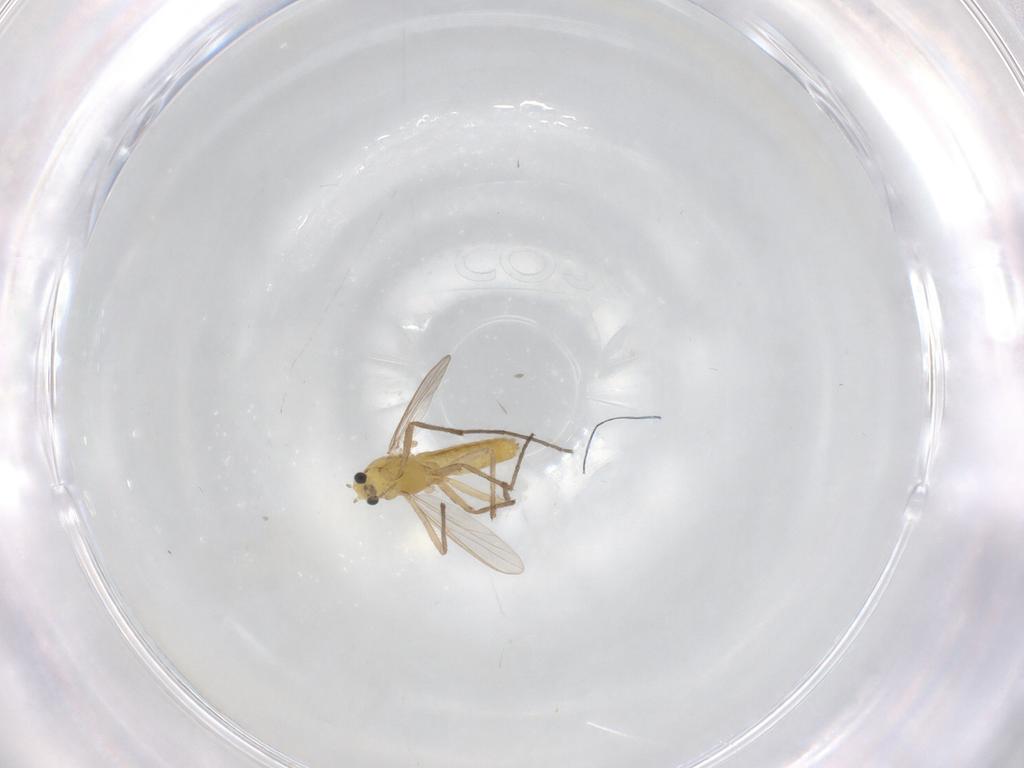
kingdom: Animalia
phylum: Arthropoda
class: Insecta
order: Diptera
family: Chironomidae
